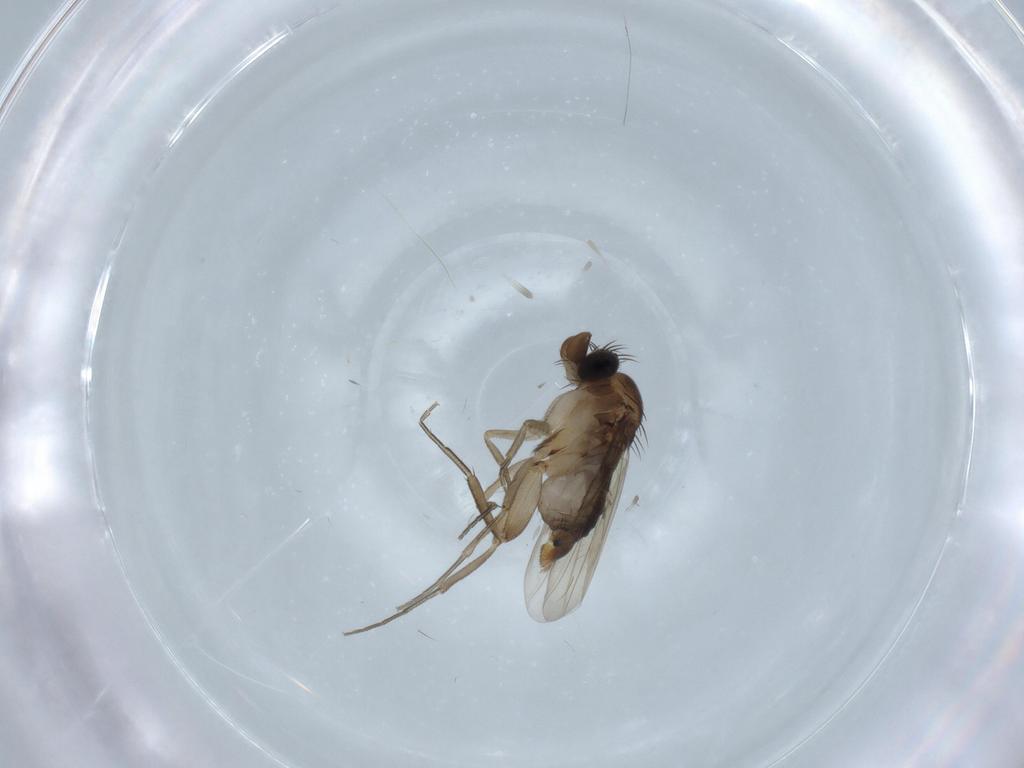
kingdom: Animalia
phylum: Arthropoda
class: Insecta
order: Diptera
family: Phoridae
